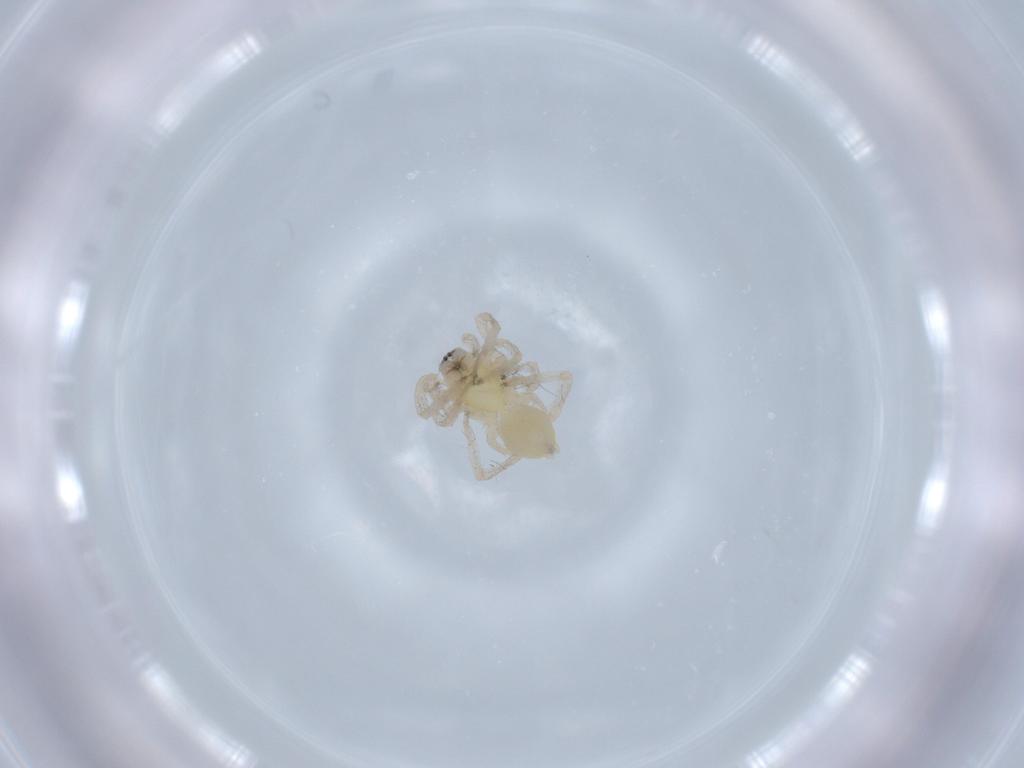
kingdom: Animalia
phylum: Arthropoda
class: Arachnida
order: Araneae
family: Anyphaenidae
